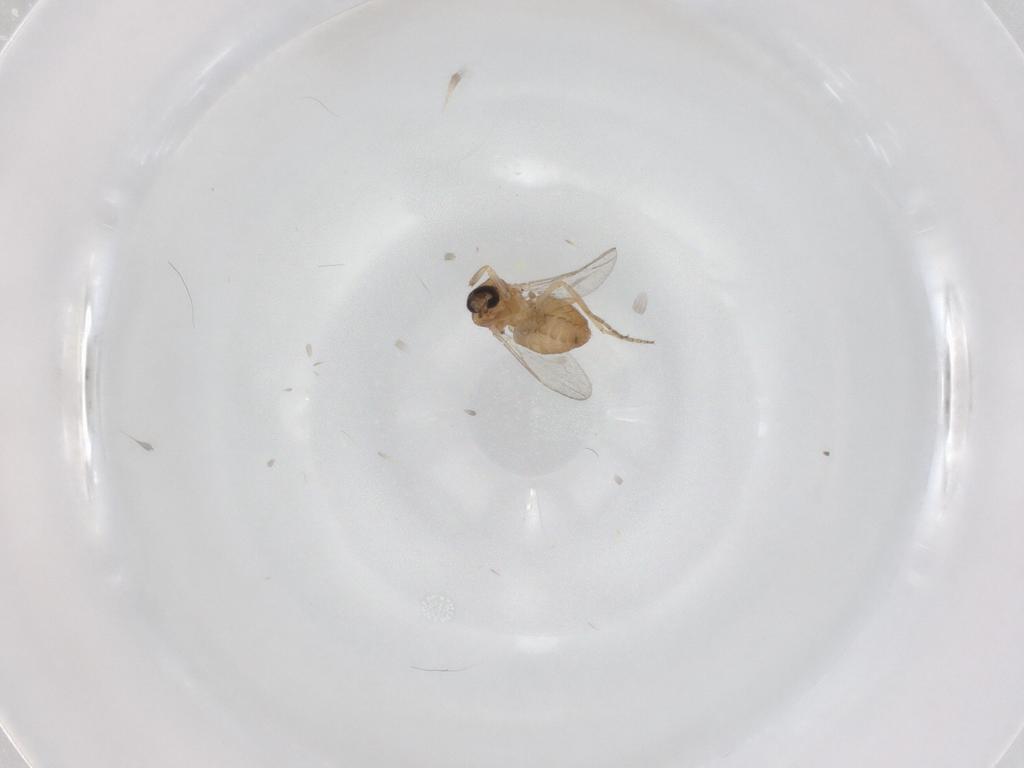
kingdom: Animalia
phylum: Arthropoda
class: Insecta
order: Diptera
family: Ceratopogonidae
